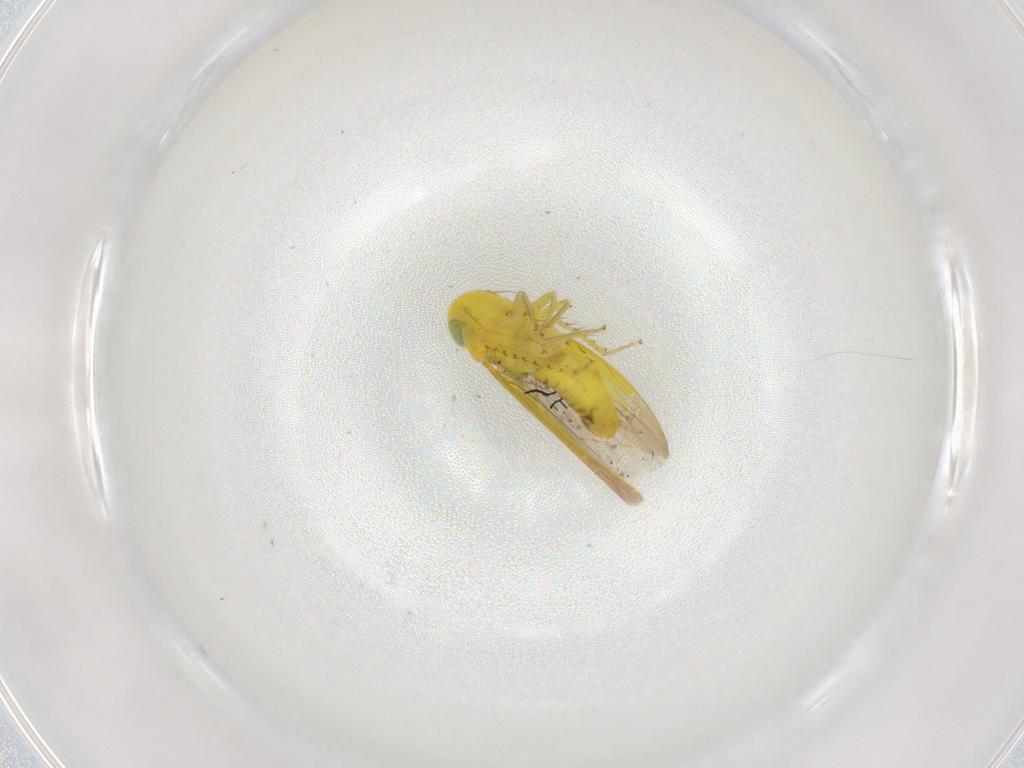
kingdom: Animalia
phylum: Arthropoda
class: Insecta
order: Hemiptera
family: Cicadellidae
